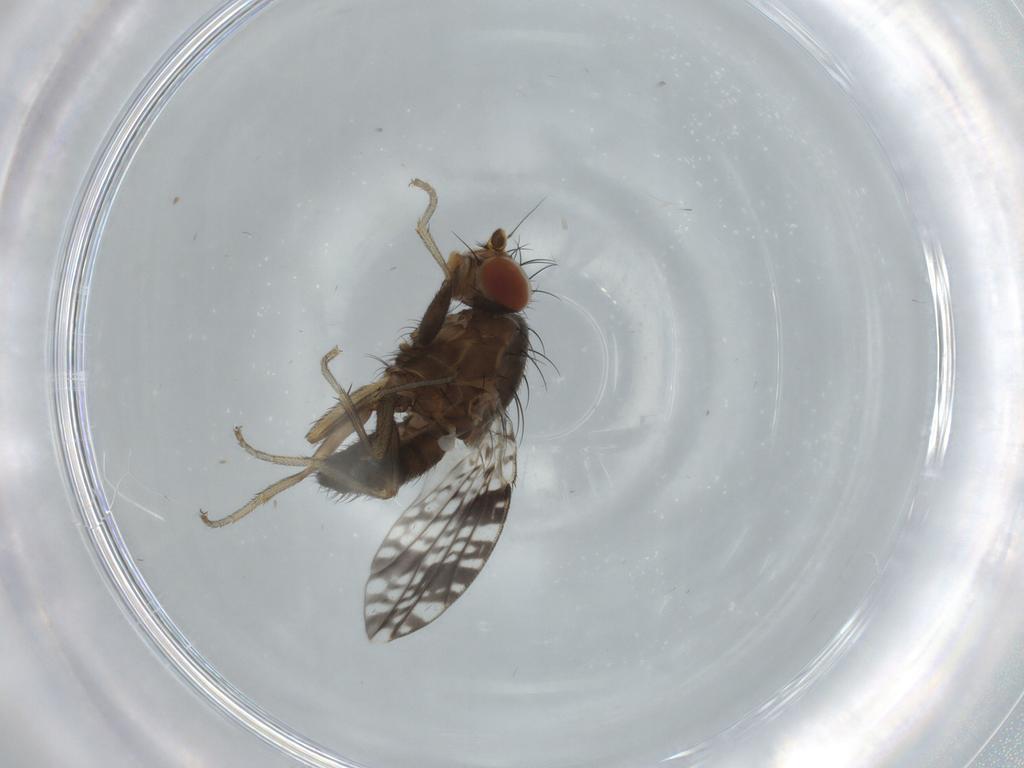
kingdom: Animalia
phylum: Arthropoda
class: Insecta
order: Diptera
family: Tephritidae
